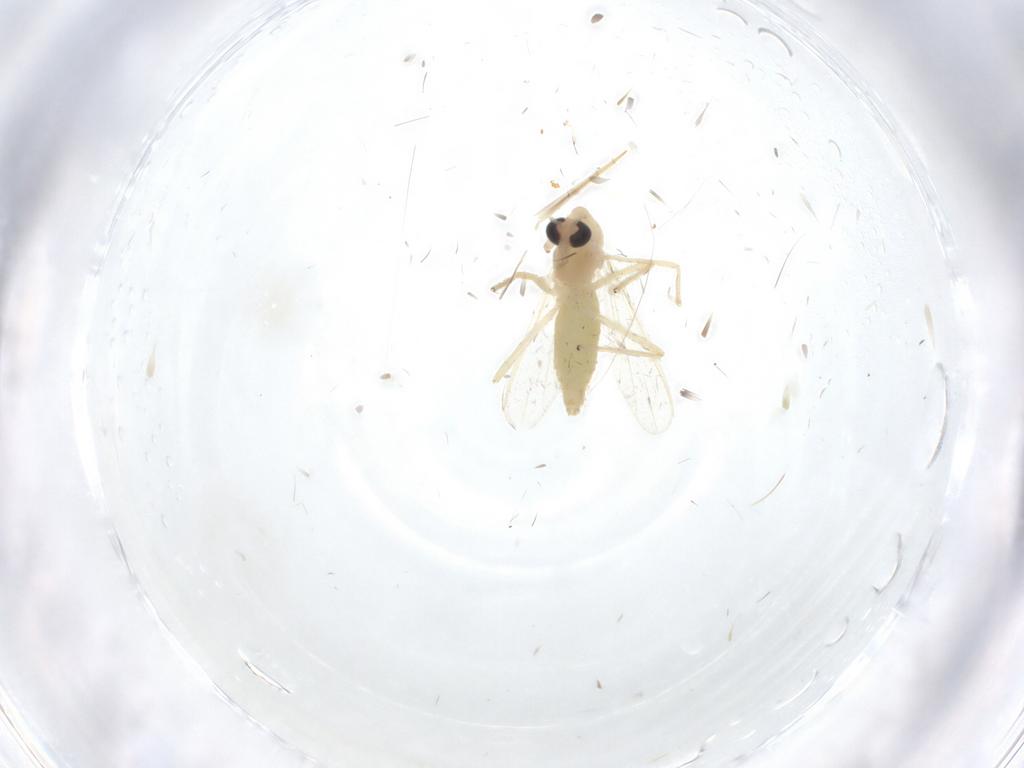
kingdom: Animalia
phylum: Arthropoda
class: Insecta
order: Diptera
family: Chironomidae
